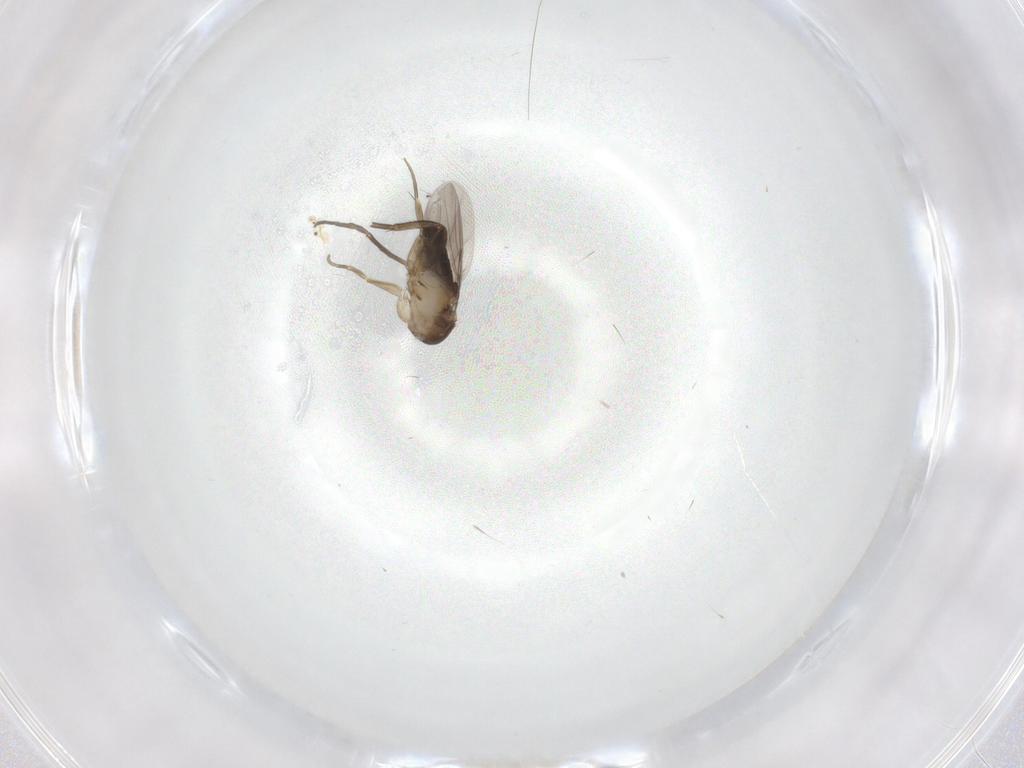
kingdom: Animalia
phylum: Arthropoda
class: Insecta
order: Diptera
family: Phoridae
